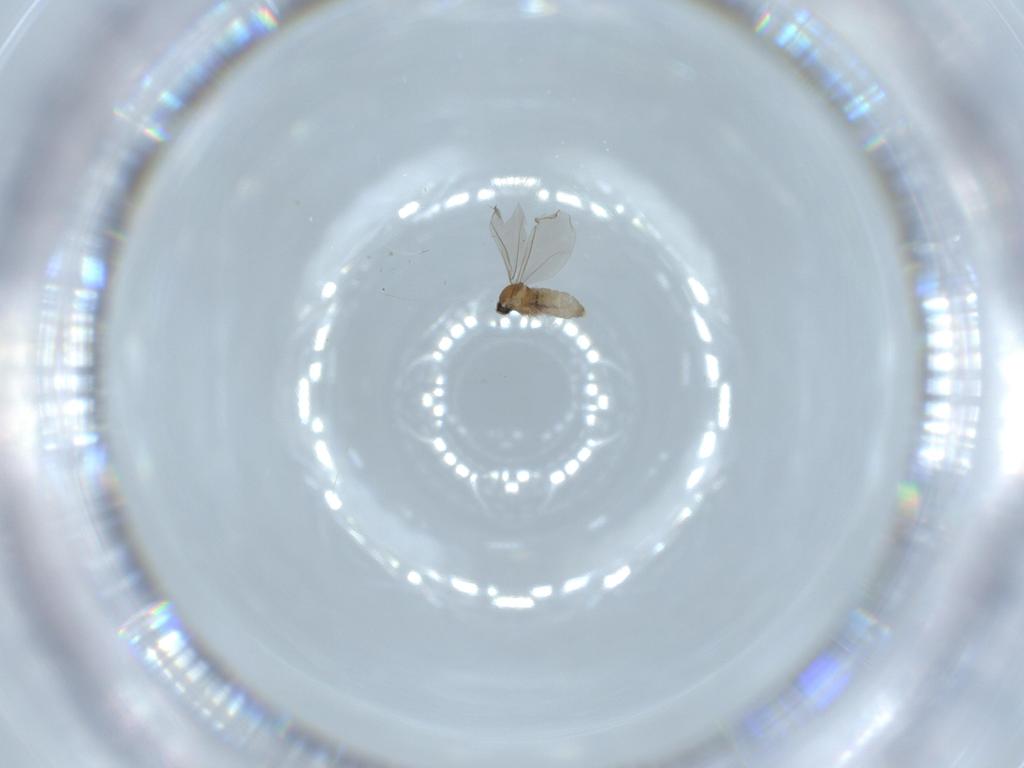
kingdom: Animalia
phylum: Arthropoda
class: Insecta
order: Diptera
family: Cecidomyiidae
